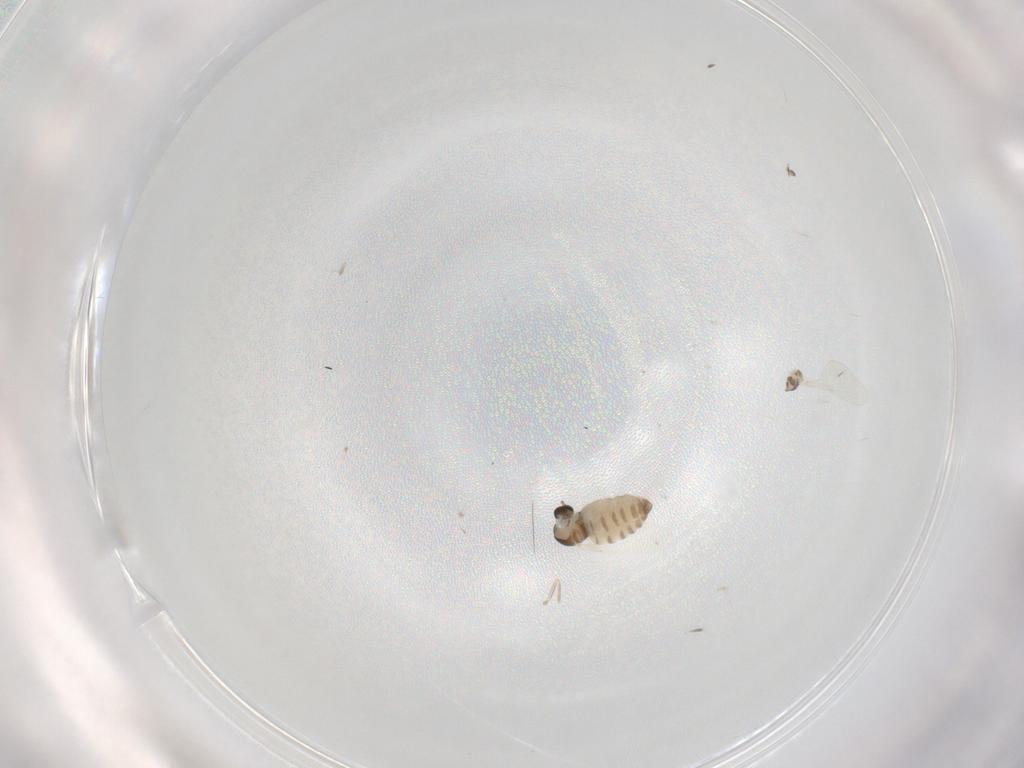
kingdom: Animalia
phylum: Arthropoda
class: Insecta
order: Diptera
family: Cecidomyiidae
